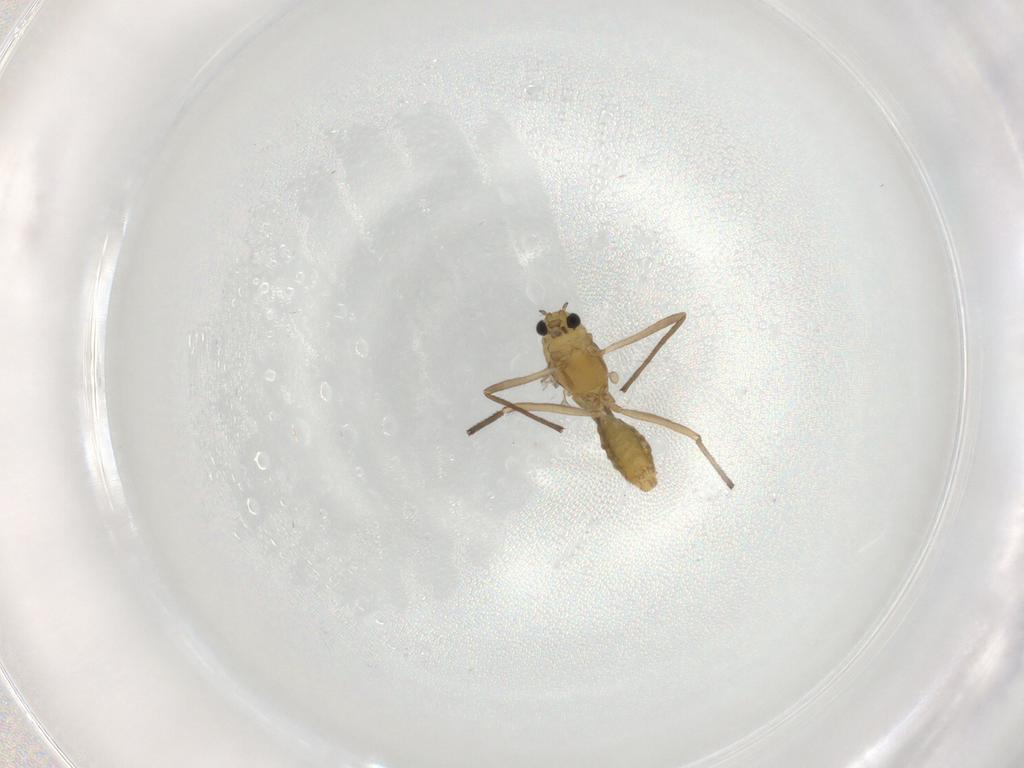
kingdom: Animalia
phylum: Arthropoda
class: Insecta
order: Diptera
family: Chironomidae
